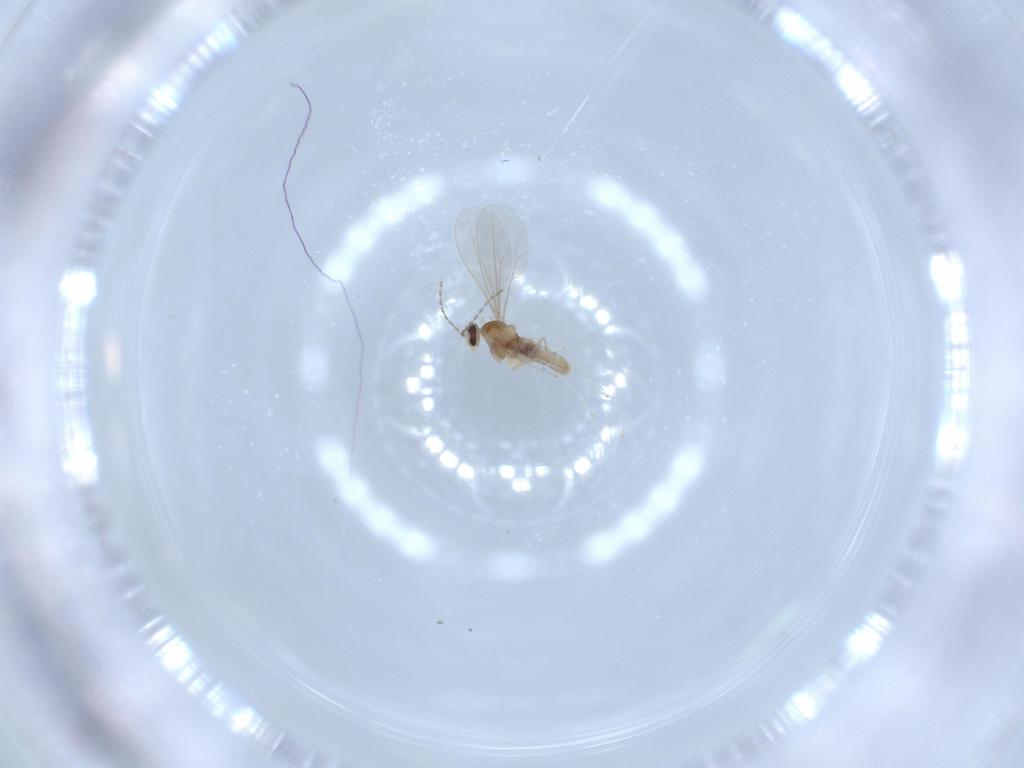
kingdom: Animalia
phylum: Arthropoda
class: Insecta
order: Diptera
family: Cecidomyiidae
